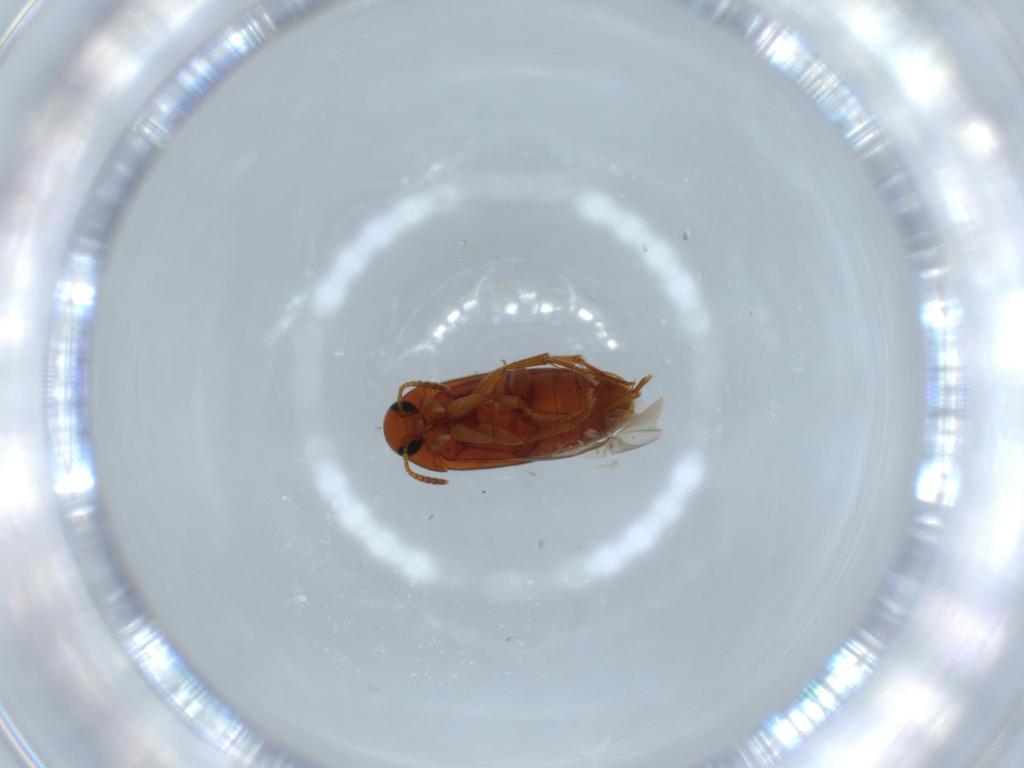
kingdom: Animalia
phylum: Arthropoda
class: Insecta
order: Coleoptera
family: Scraptiidae
